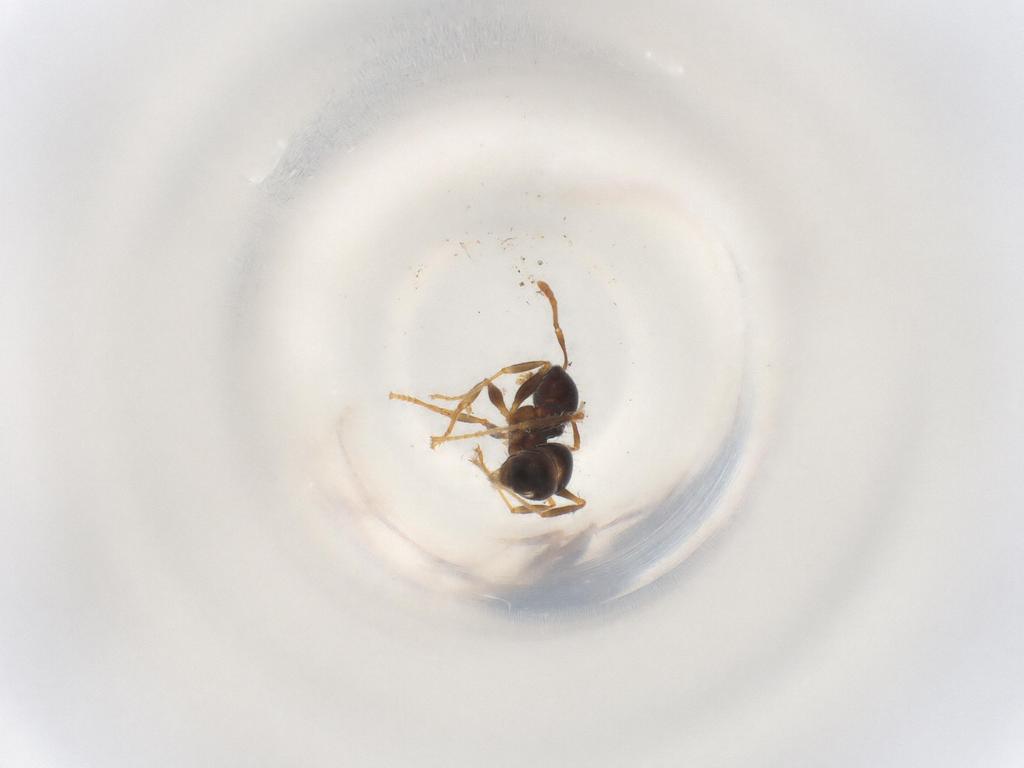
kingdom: Animalia
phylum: Arthropoda
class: Insecta
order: Hymenoptera
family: Formicidae
